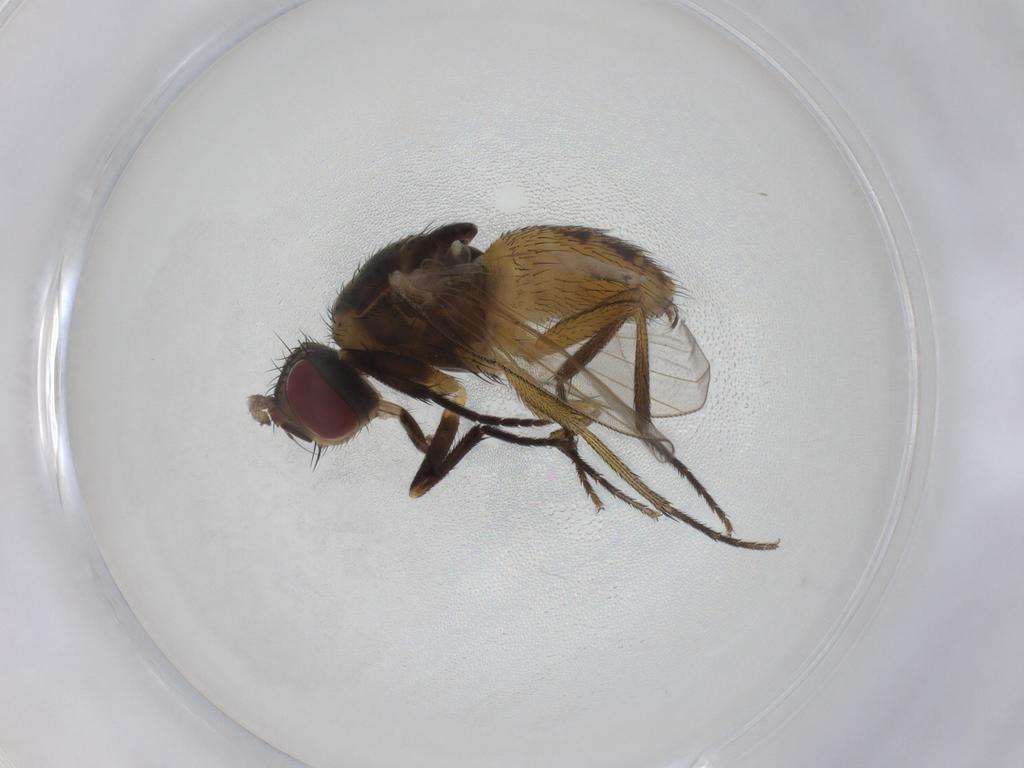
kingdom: Animalia
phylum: Arthropoda
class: Insecta
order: Diptera
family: Muscidae
